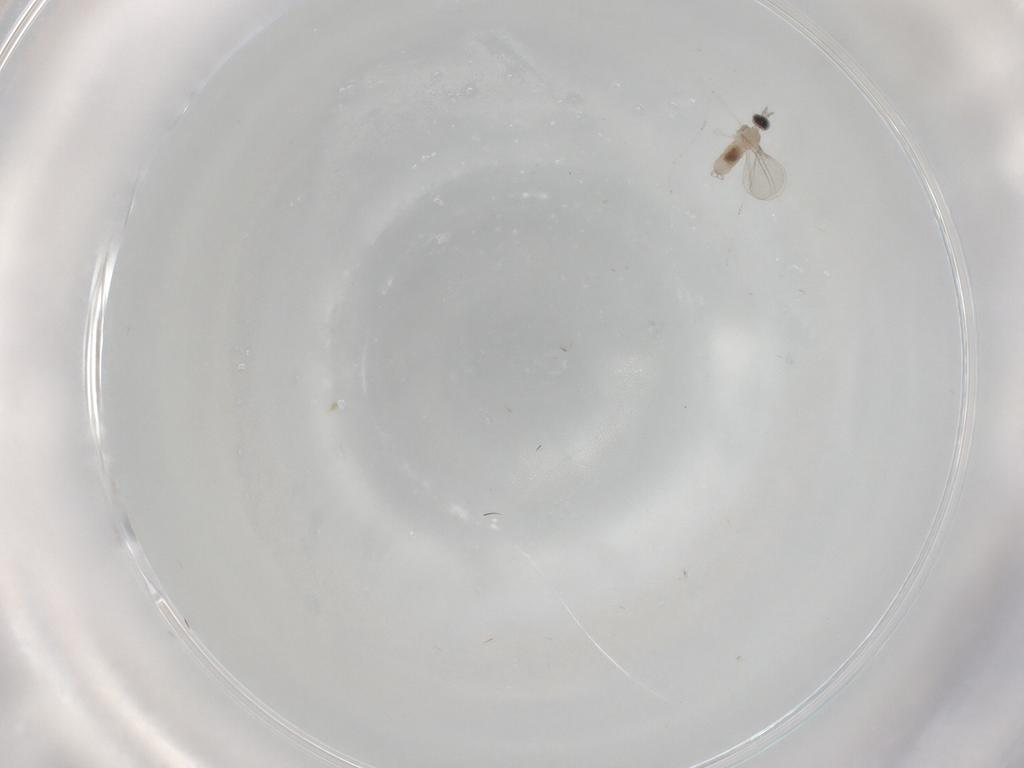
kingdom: Animalia
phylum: Arthropoda
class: Insecta
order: Diptera
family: Cecidomyiidae
